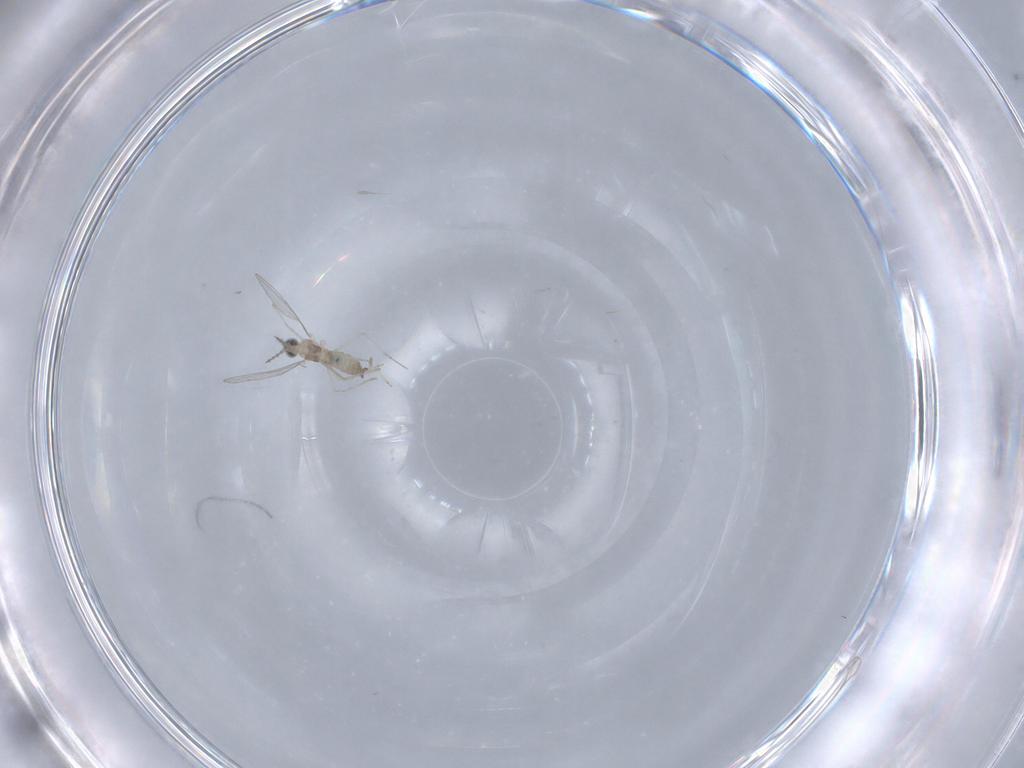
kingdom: Animalia
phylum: Arthropoda
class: Insecta
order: Diptera
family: Cecidomyiidae
